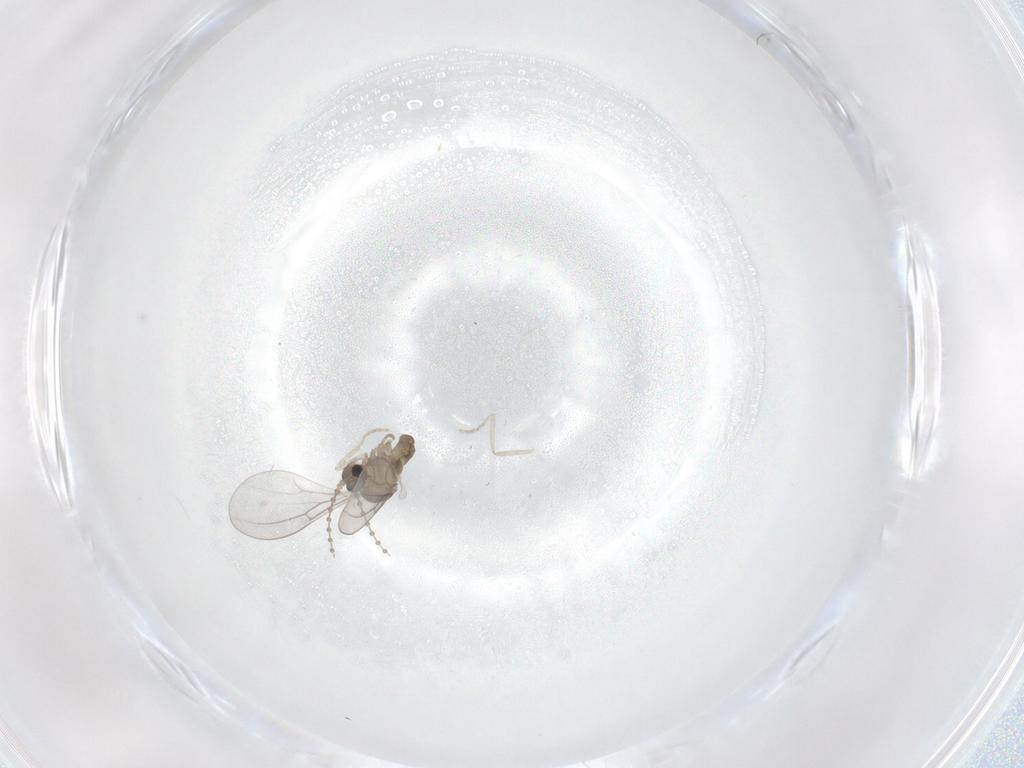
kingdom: Animalia
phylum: Arthropoda
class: Insecta
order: Diptera
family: Cecidomyiidae
